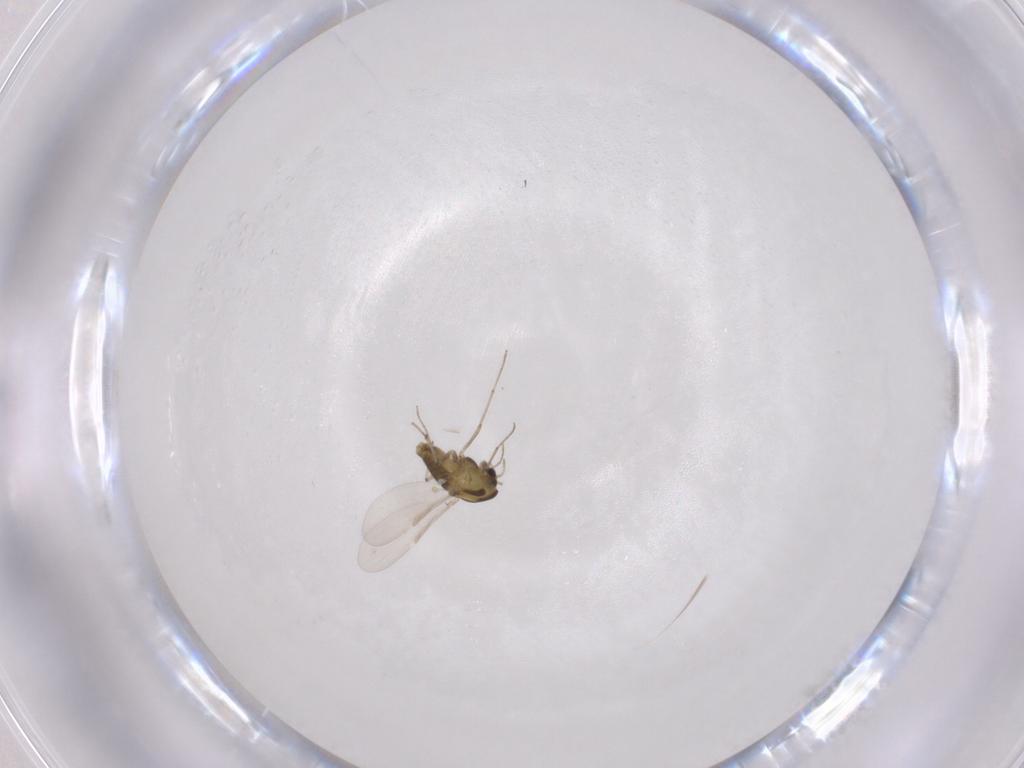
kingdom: Animalia
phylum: Arthropoda
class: Insecta
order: Diptera
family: Chironomidae
